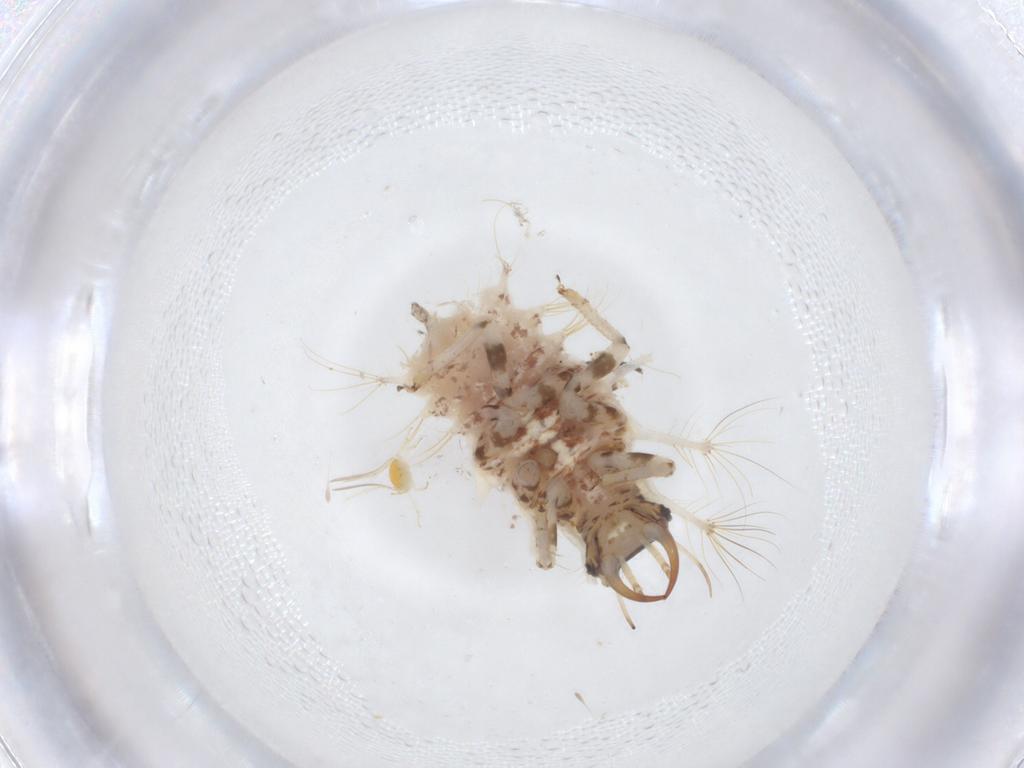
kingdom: Animalia
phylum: Arthropoda
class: Insecta
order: Neuroptera
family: Chrysopidae
